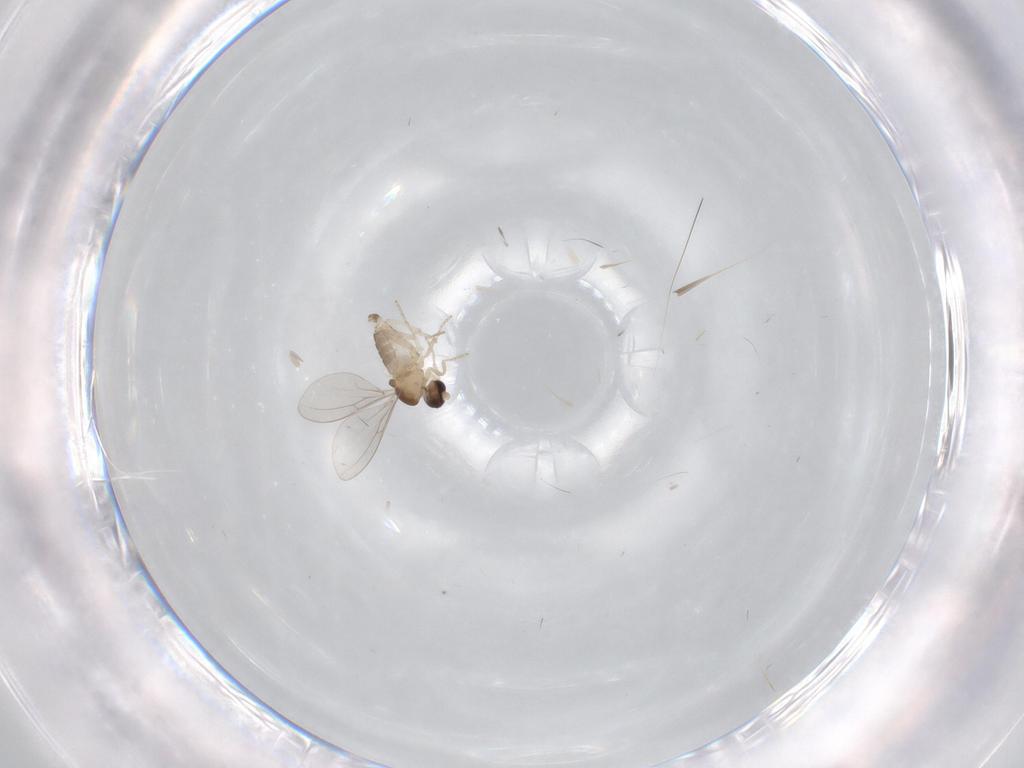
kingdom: Animalia
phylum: Arthropoda
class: Insecta
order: Diptera
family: Cecidomyiidae
